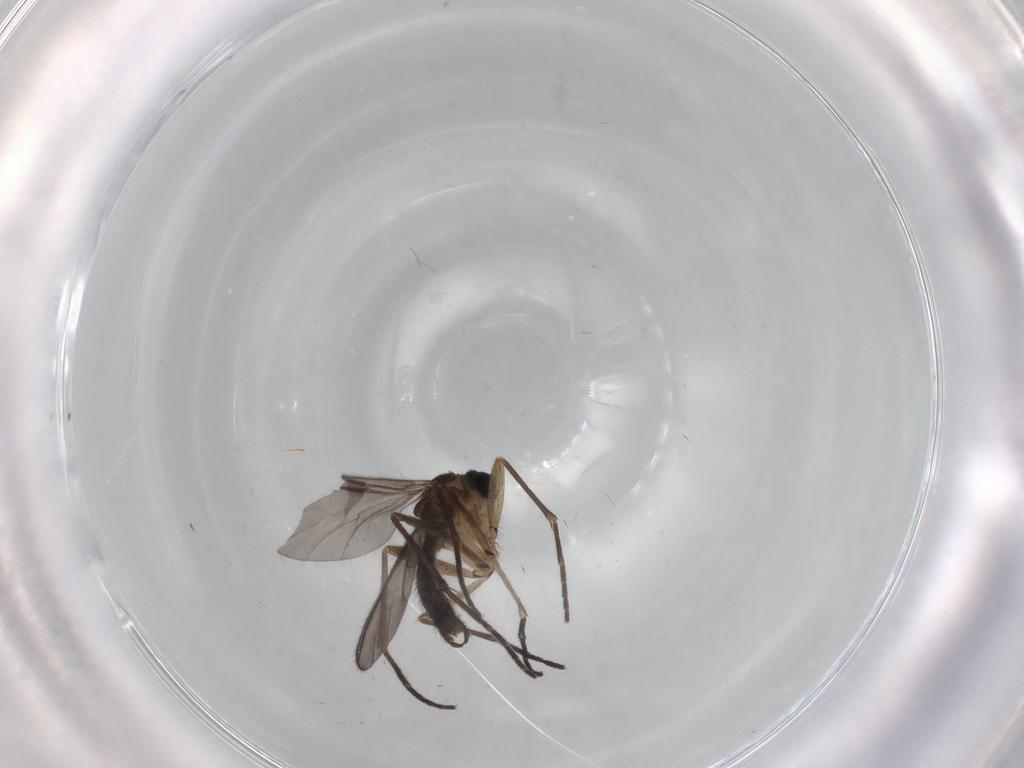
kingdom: Animalia
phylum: Arthropoda
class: Insecta
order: Diptera
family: Sciaridae
